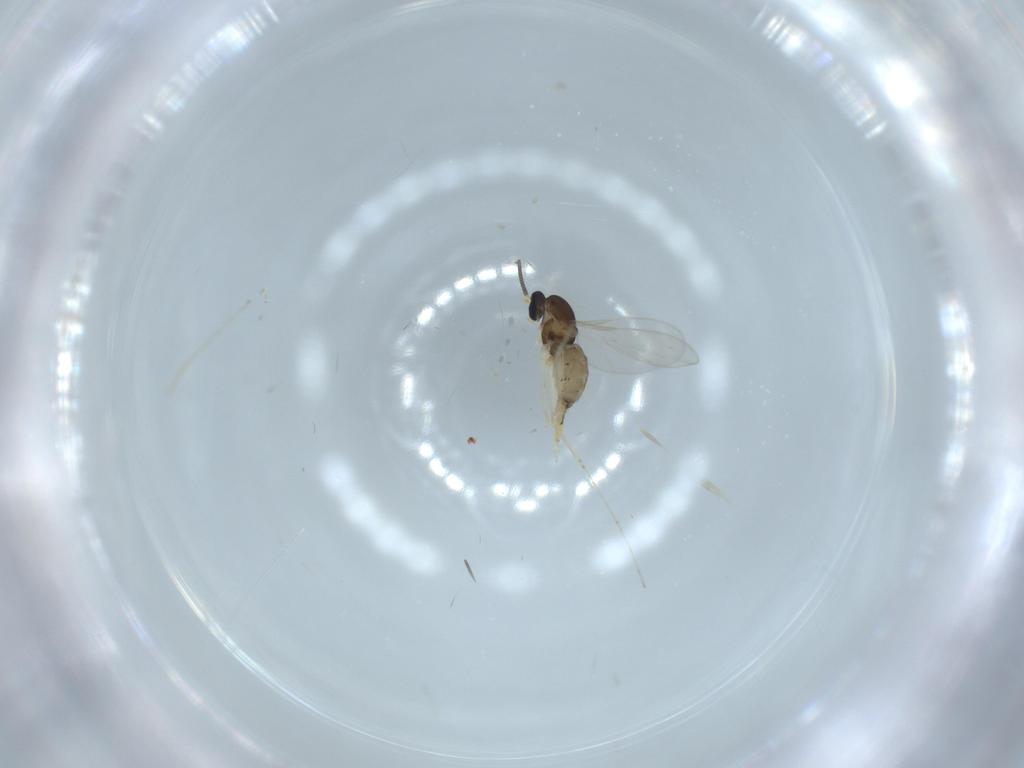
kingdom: Animalia
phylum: Arthropoda
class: Insecta
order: Diptera
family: Cecidomyiidae
